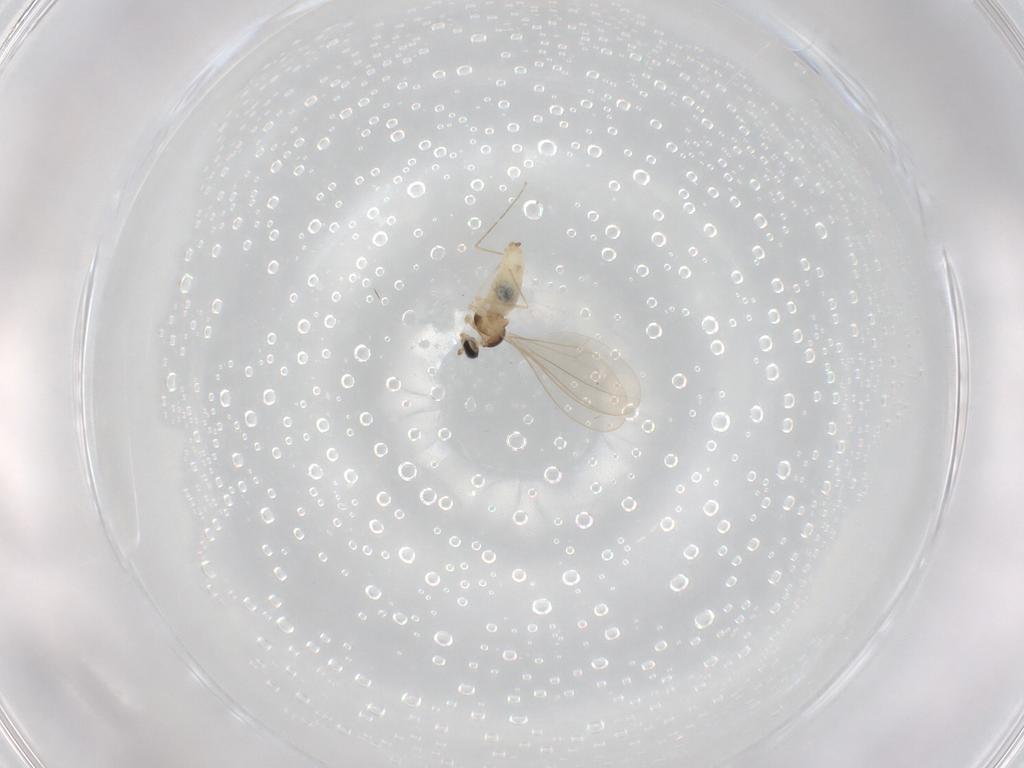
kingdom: Animalia
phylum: Arthropoda
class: Insecta
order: Diptera
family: Cecidomyiidae
